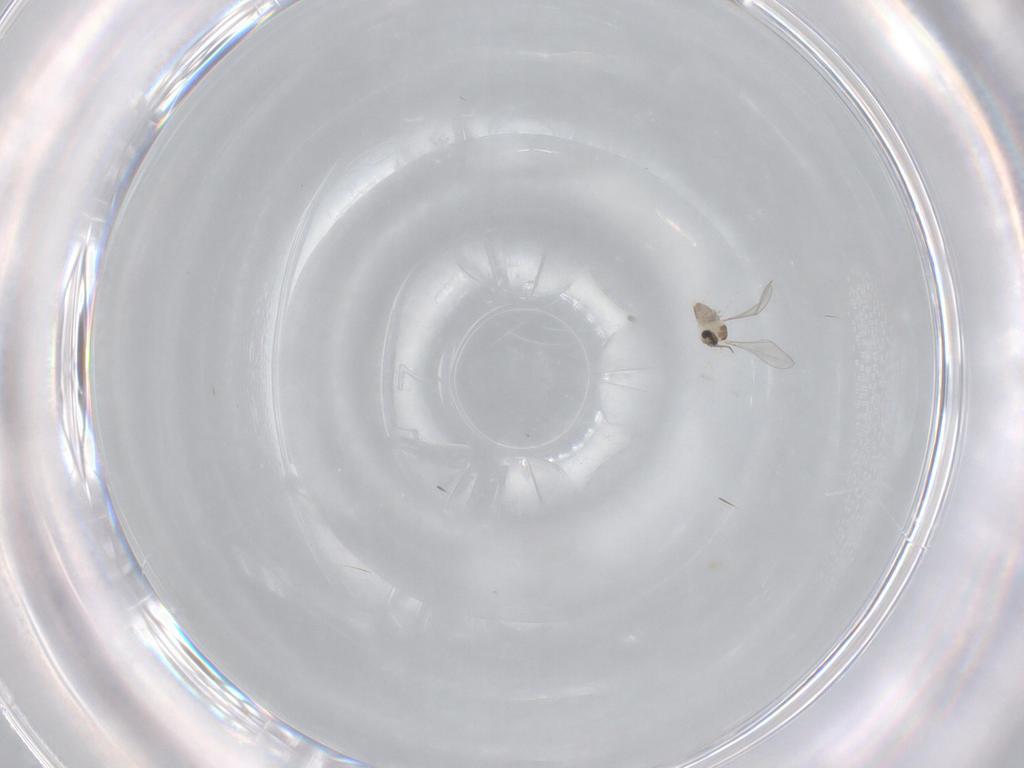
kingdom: Animalia
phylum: Arthropoda
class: Insecta
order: Diptera
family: Cecidomyiidae
